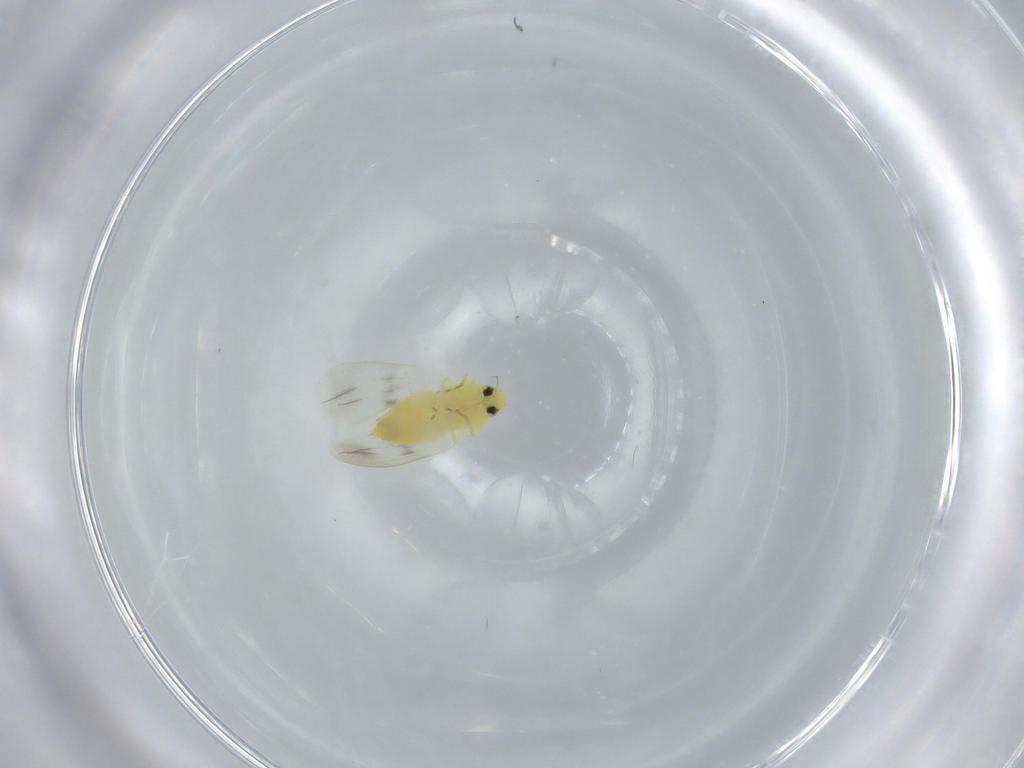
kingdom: Animalia
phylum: Arthropoda
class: Insecta
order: Hemiptera
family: Aleyrodidae
